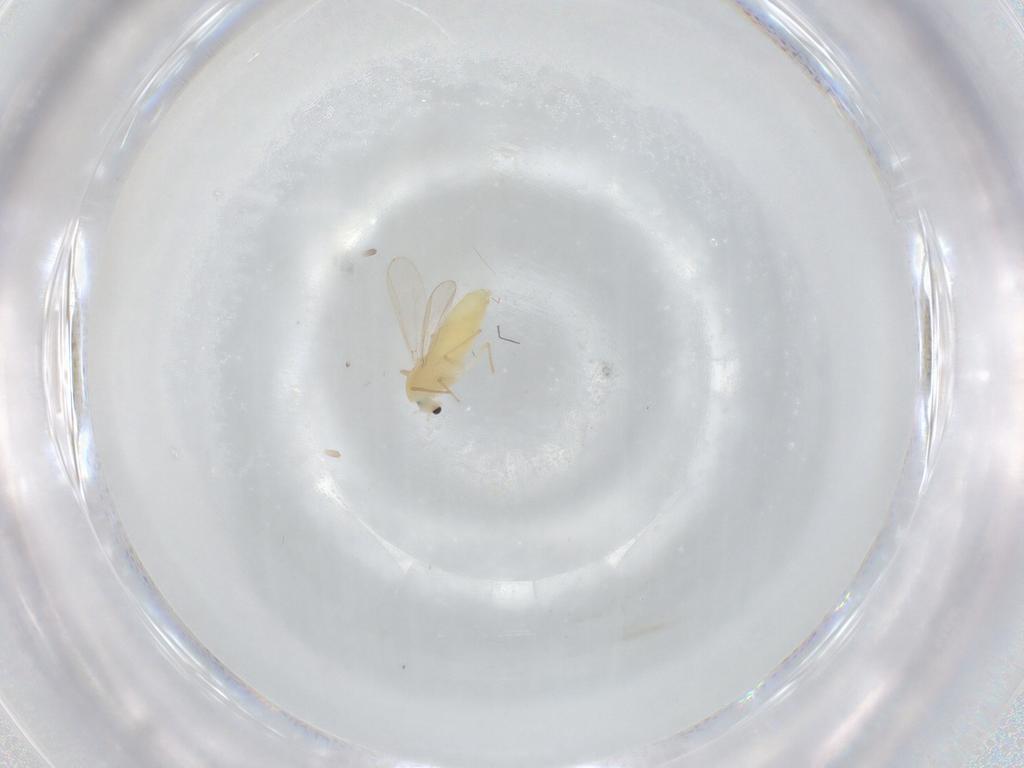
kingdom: Animalia
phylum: Arthropoda
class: Insecta
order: Diptera
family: Chironomidae
